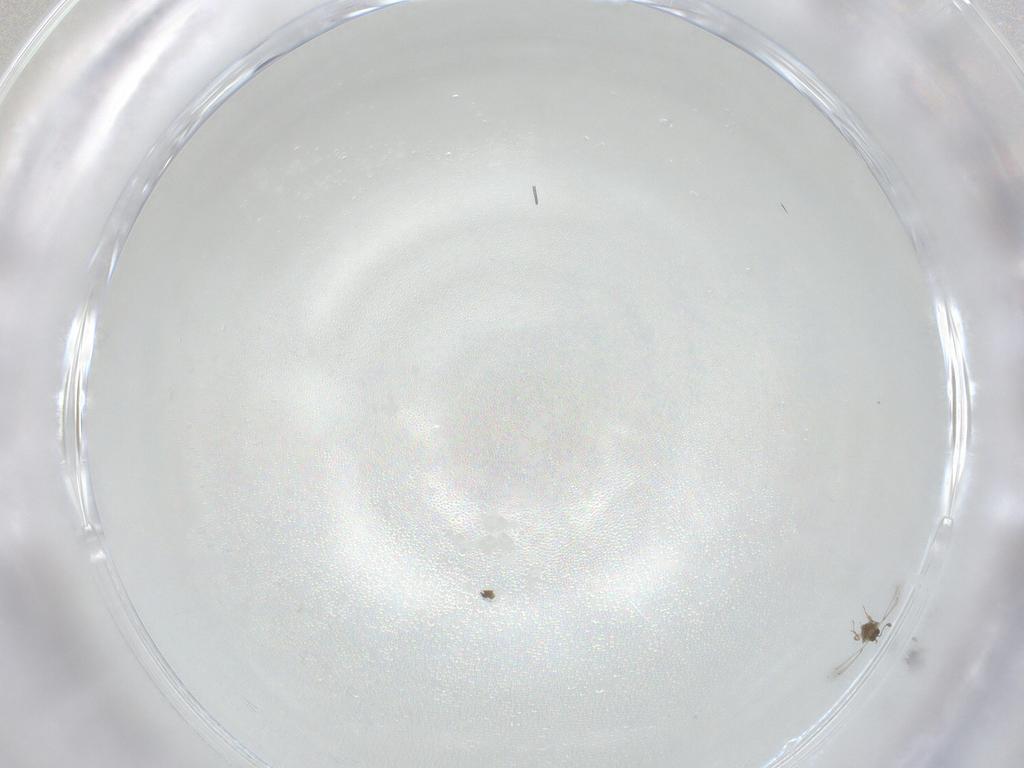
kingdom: Animalia
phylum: Arthropoda
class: Insecta
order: Hymenoptera
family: Mymaridae
